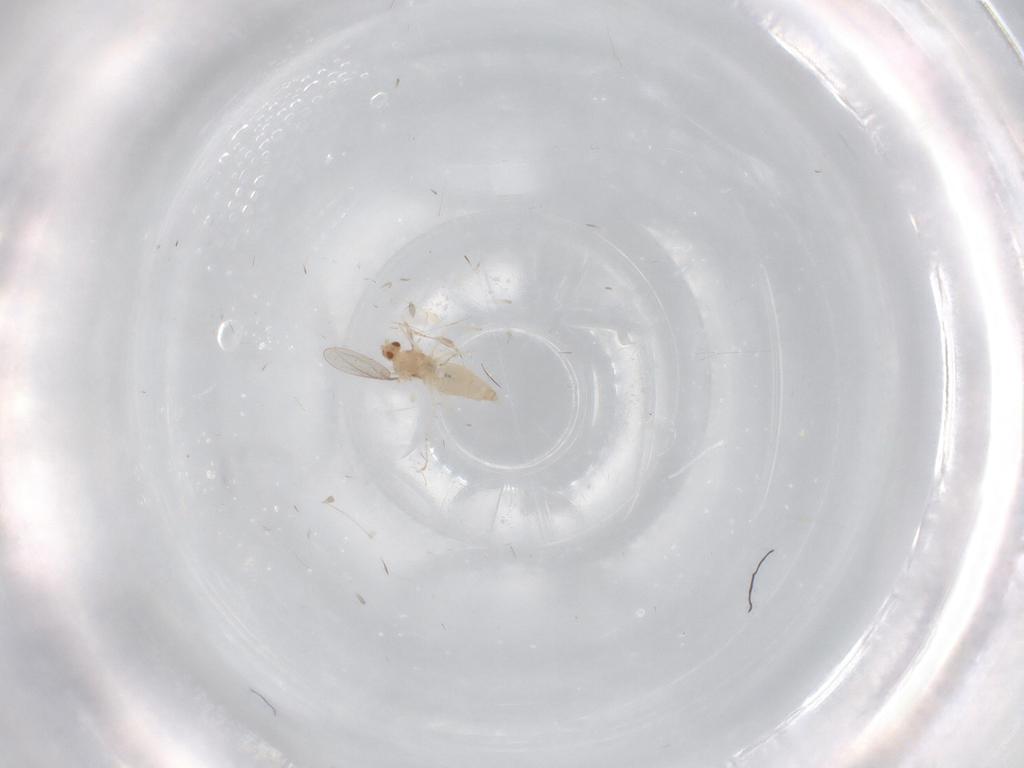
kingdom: Animalia
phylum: Arthropoda
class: Insecta
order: Diptera
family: Cecidomyiidae
